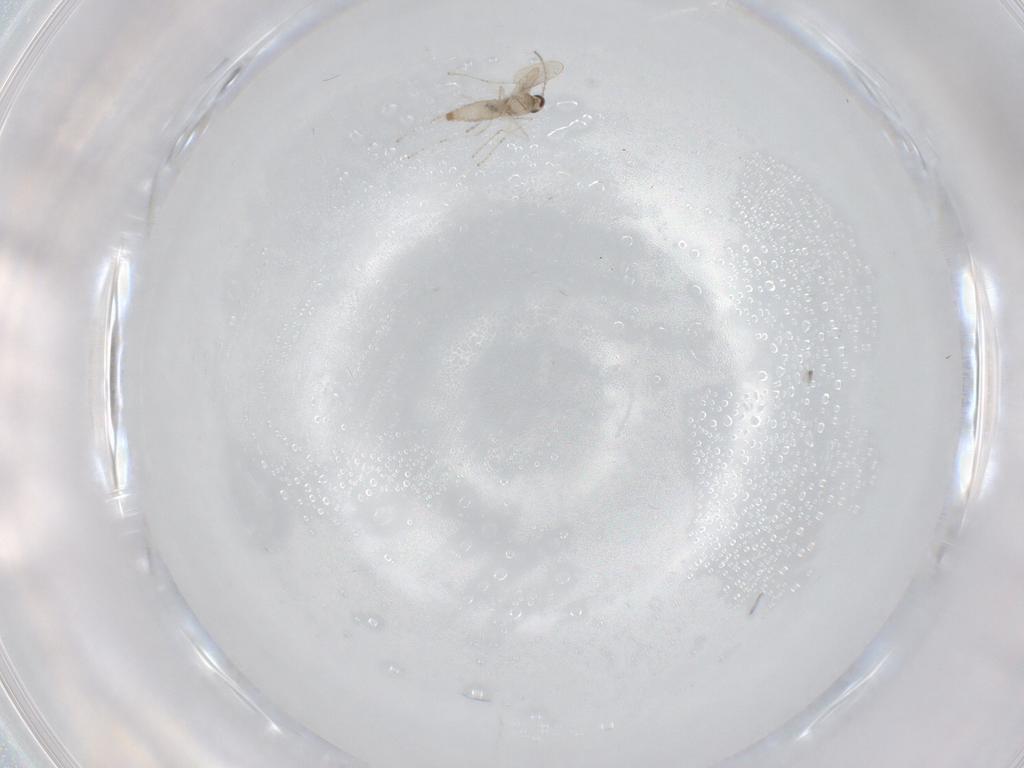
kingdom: Animalia
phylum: Arthropoda
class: Insecta
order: Diptera
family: Cecidomyiidae
